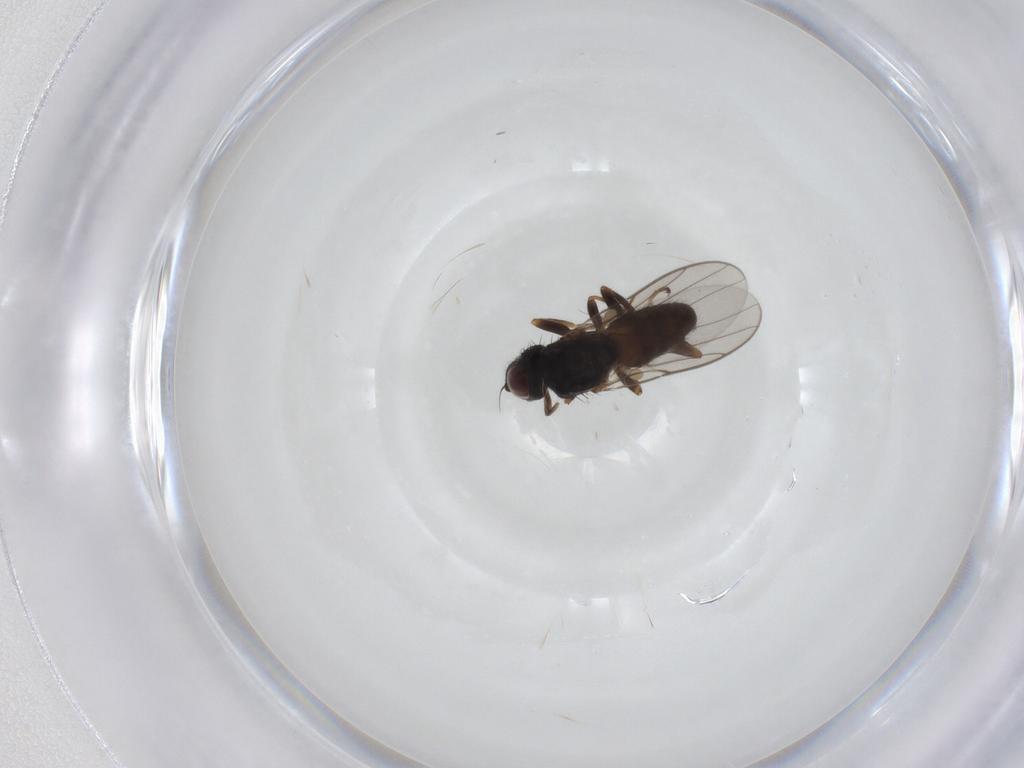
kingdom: Animalia
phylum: Arthropoda
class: Insecta
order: Diptera
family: Chloropidae
